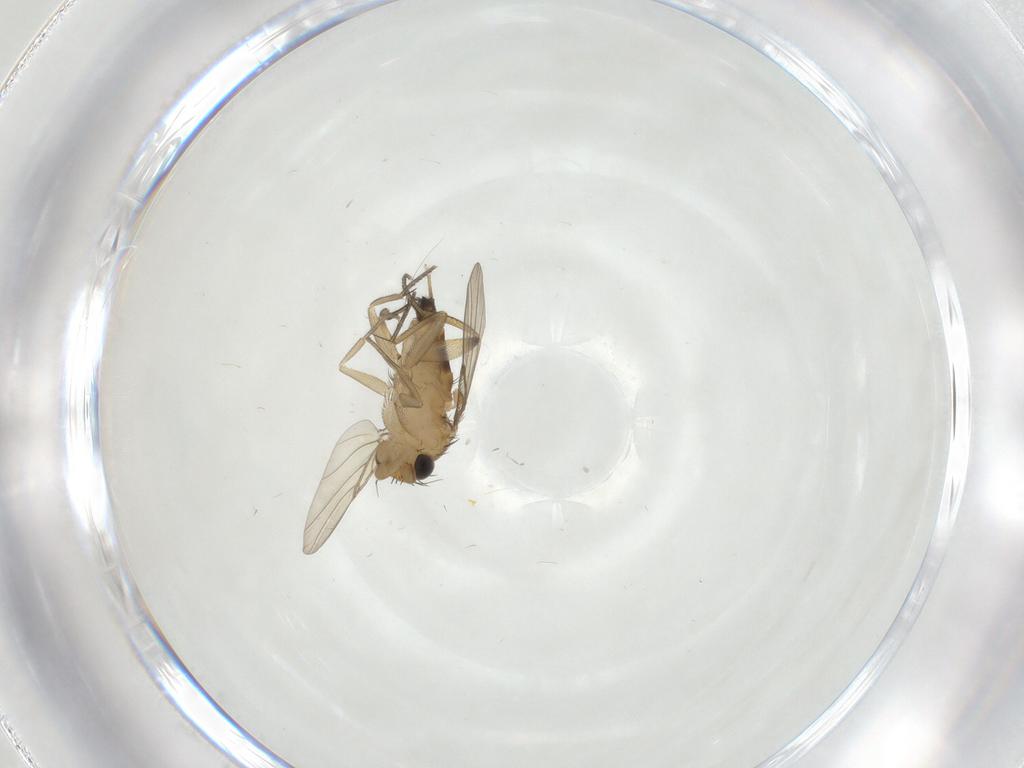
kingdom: Animalia
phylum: Arthropoda
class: Insecta
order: Diptera
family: Phoridae
